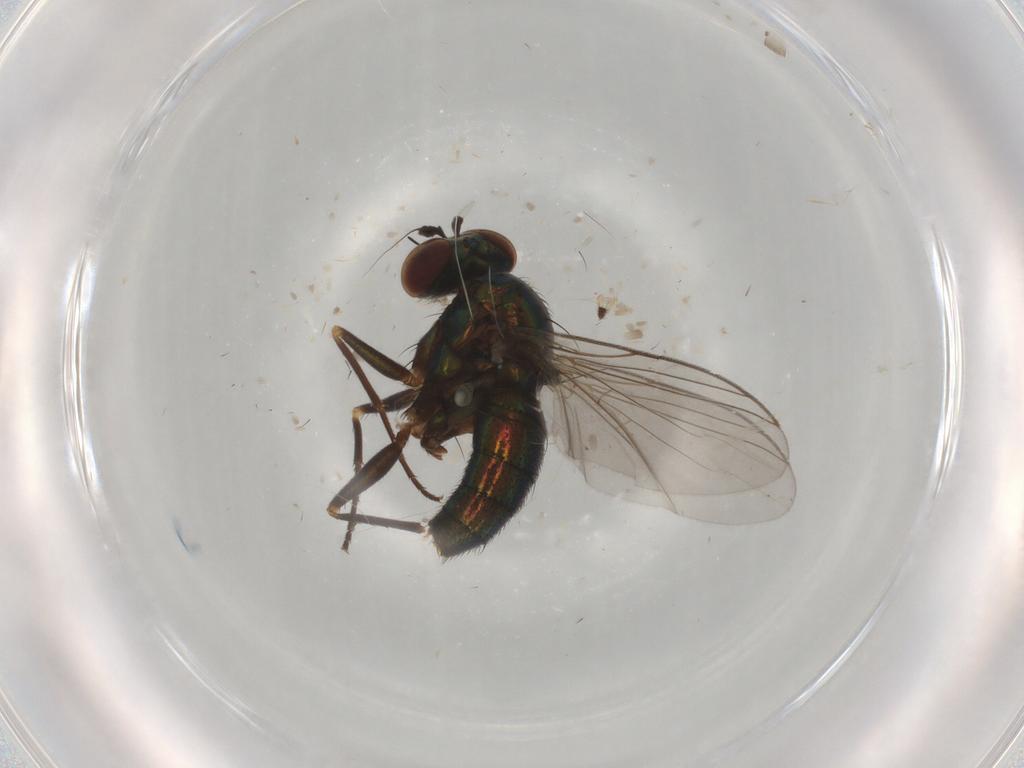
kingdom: Animalia
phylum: Arthropoda
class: Insecta
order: Diptera
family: Dolichopodidae
